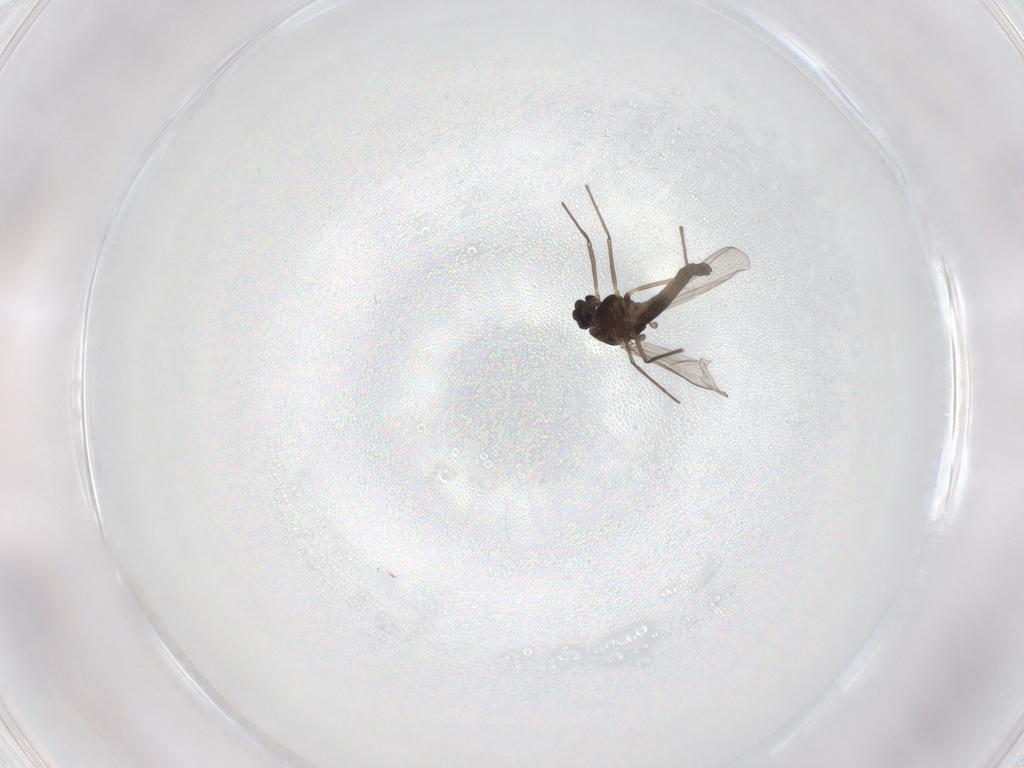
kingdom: Animalia
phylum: Arthropoda
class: Insecta
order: Diptera
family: Chironomidae
